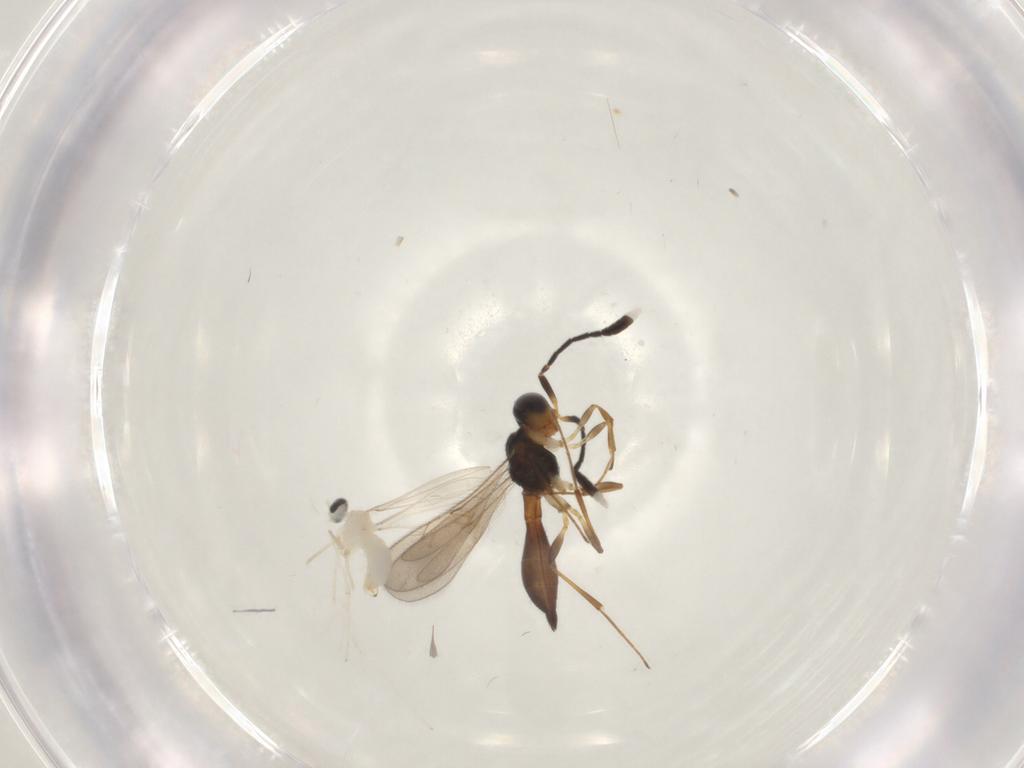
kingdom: Animalia
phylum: Arthropoda
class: Insecta
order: Diptera
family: Cecidomyiidae
